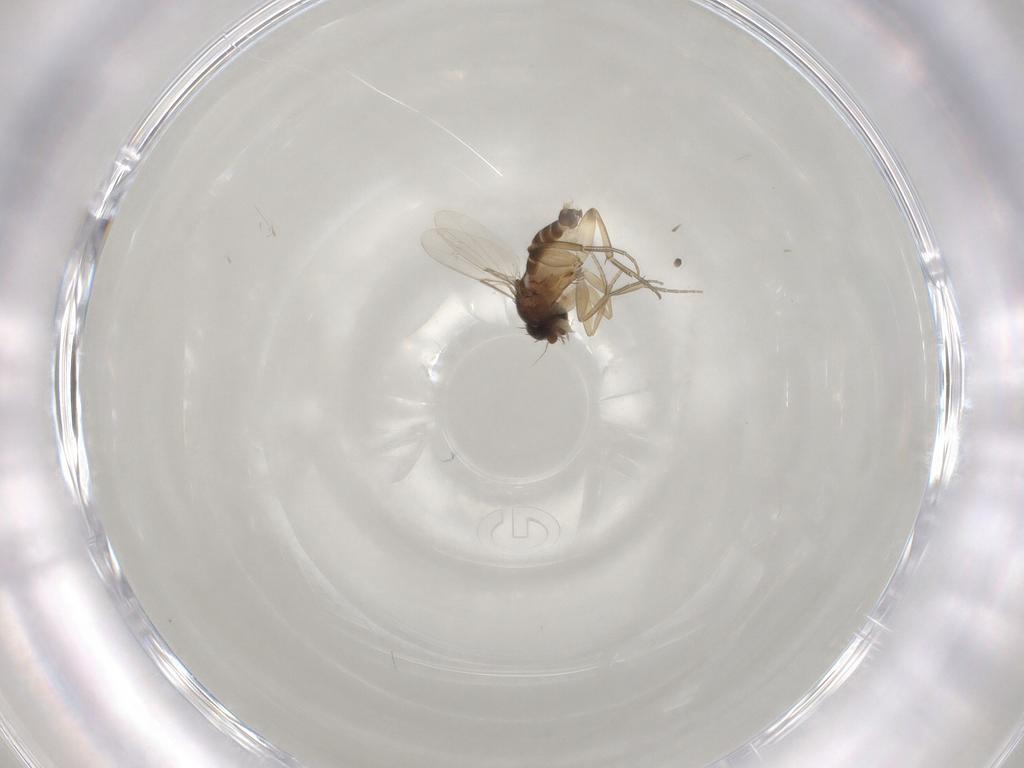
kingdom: Animalia
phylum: Arthropoda
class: Insecta
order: Diptera
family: Phoridae
